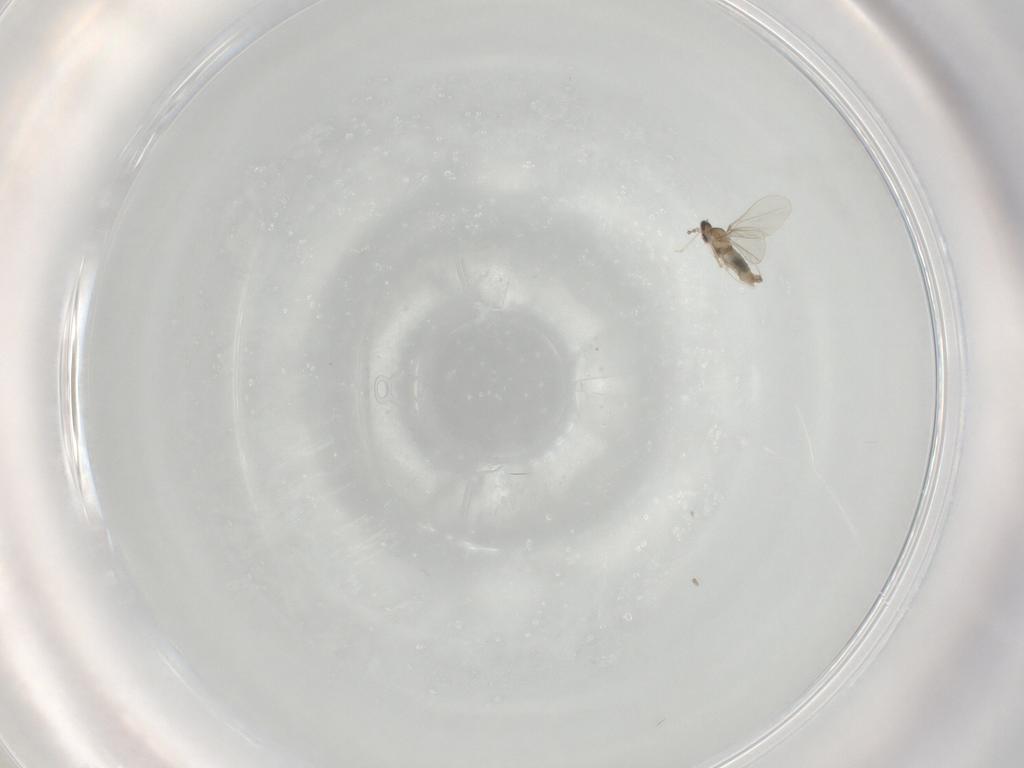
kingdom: Animalia
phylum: Arthropoda
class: Insecta
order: Diptera
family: Cecidomyiidae
